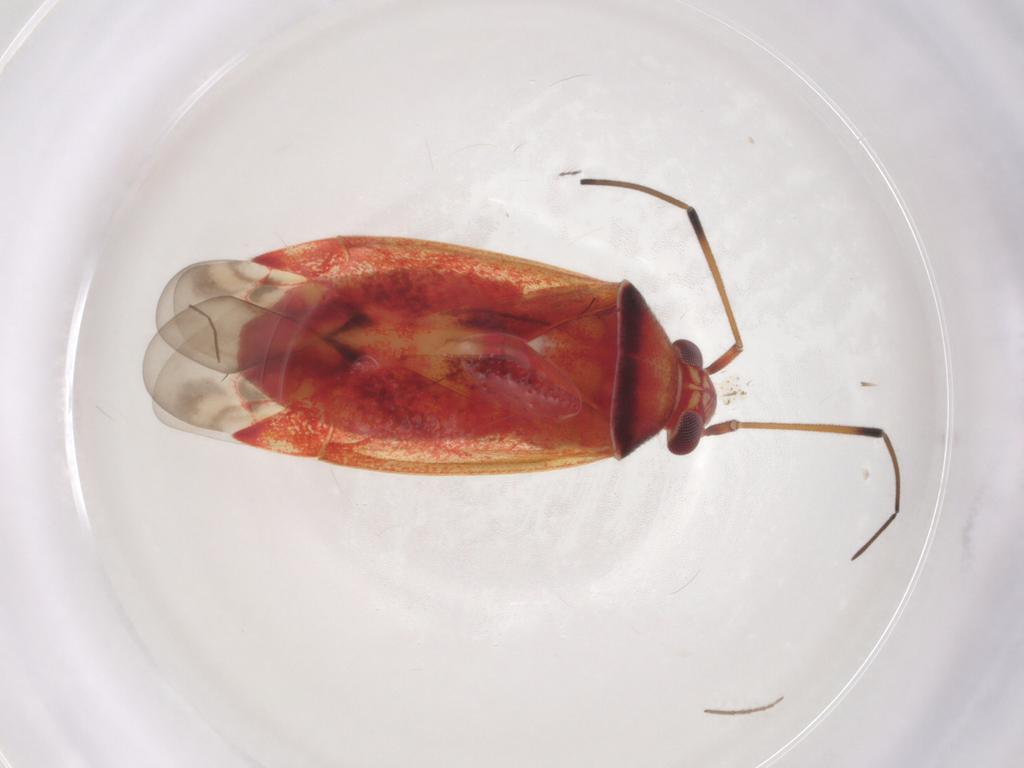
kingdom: Animalia
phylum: Arthropoda
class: Insecta
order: Hemiptera
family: Miridae
